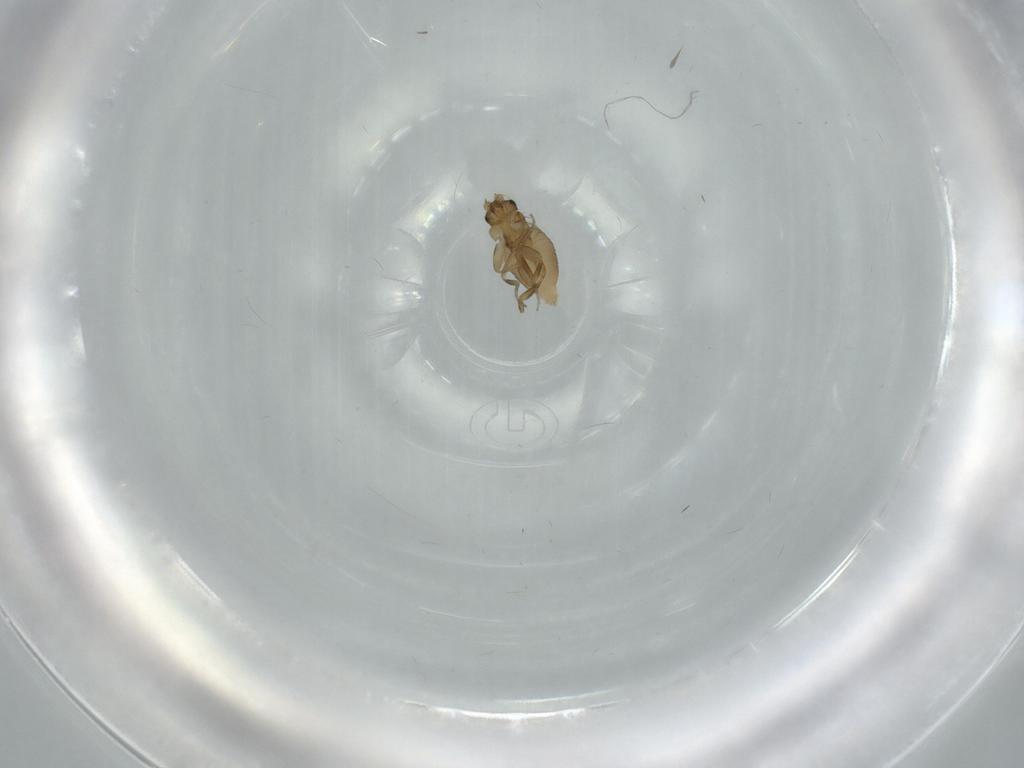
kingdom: Animalia
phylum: Arthropoda
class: Insecta
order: Diptera
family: Phoridae
